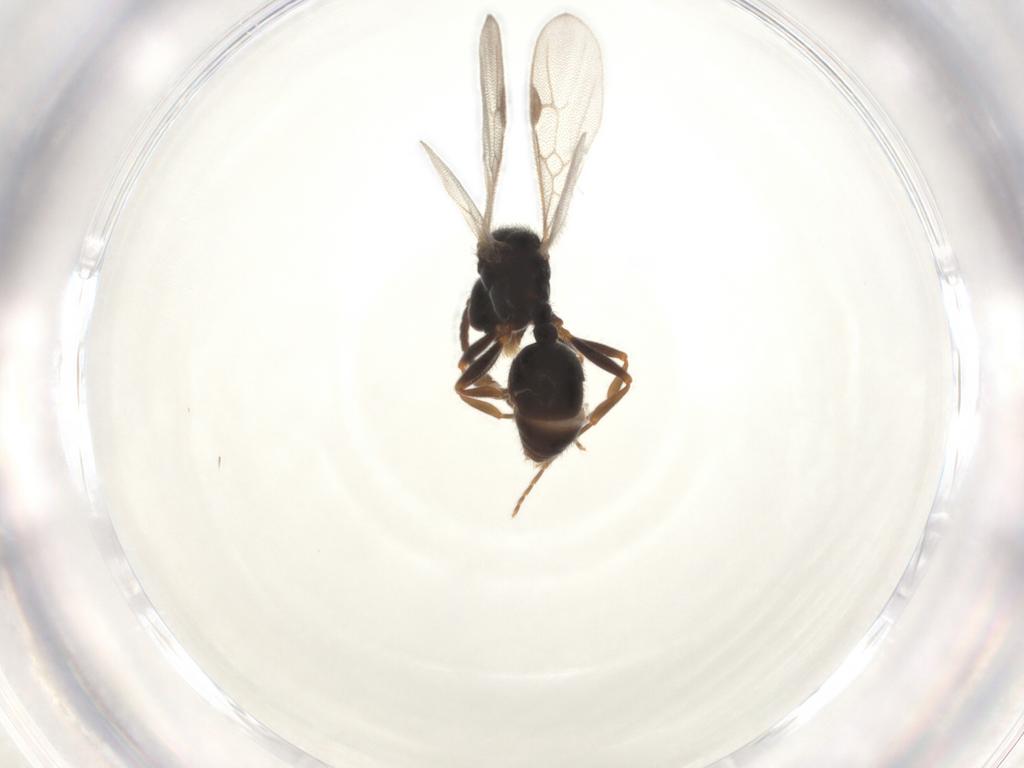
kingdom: Animalia
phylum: Arthropoda
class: Insecta
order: Hymenoptera
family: Formicidae
